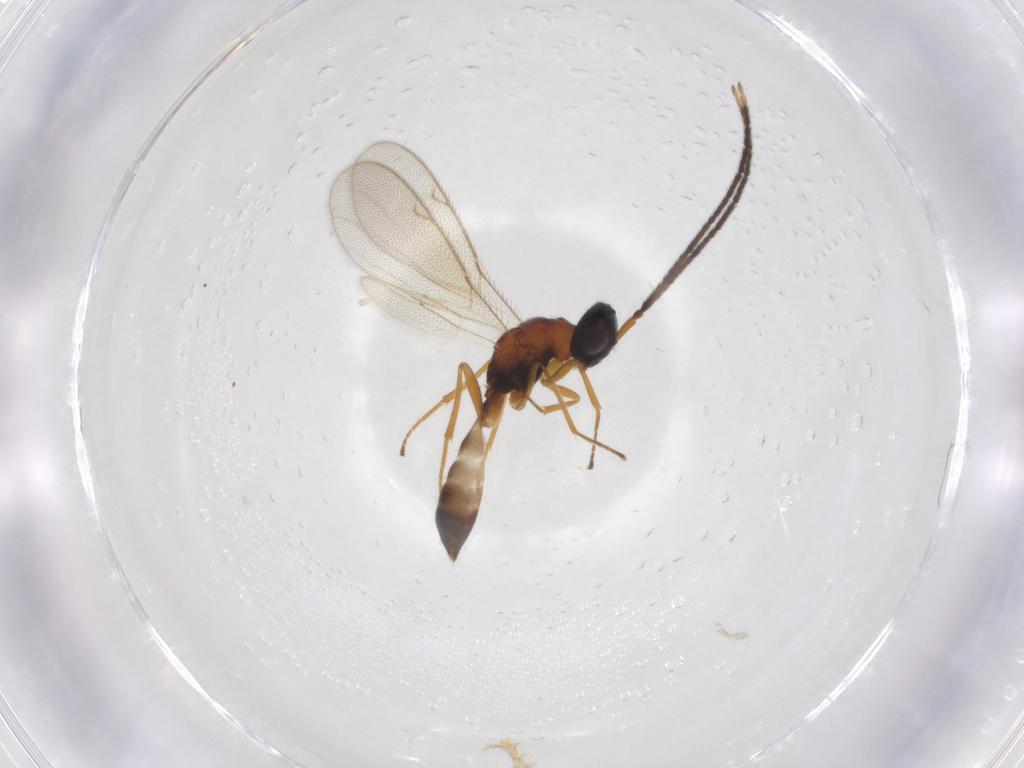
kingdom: Animalia
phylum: Arthropoda
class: Insecta
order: Hymenoptera
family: Pteromalidae
